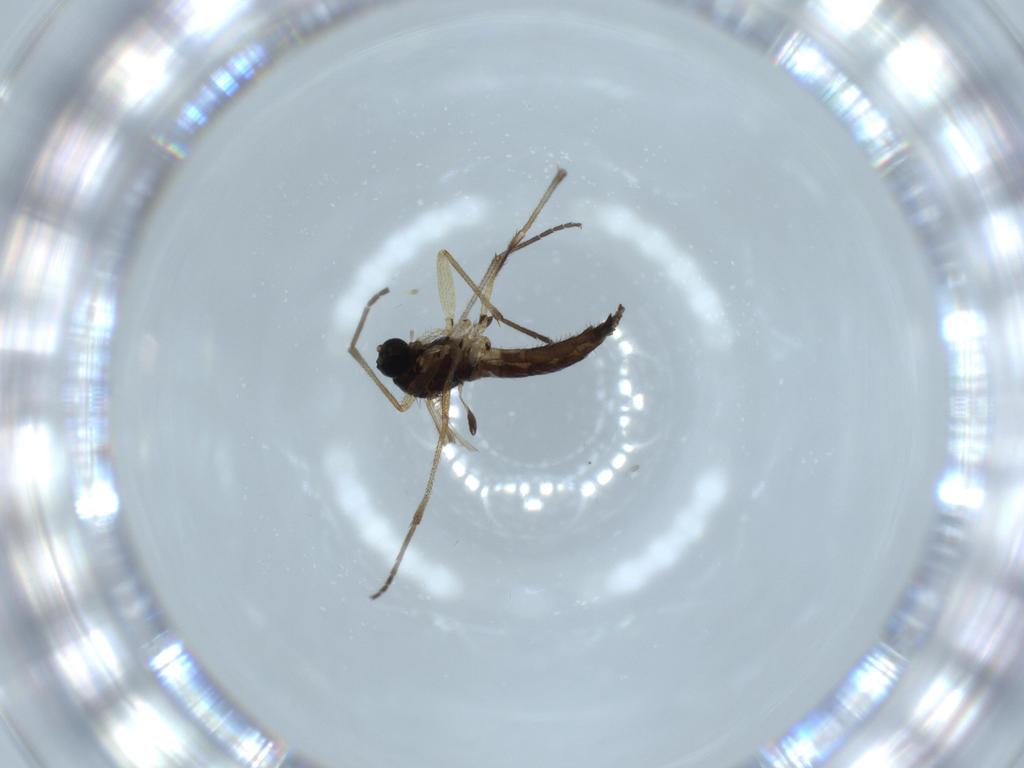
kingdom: Animalia
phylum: Arthropoda
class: Insecta
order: Diptera
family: Sciaridae
